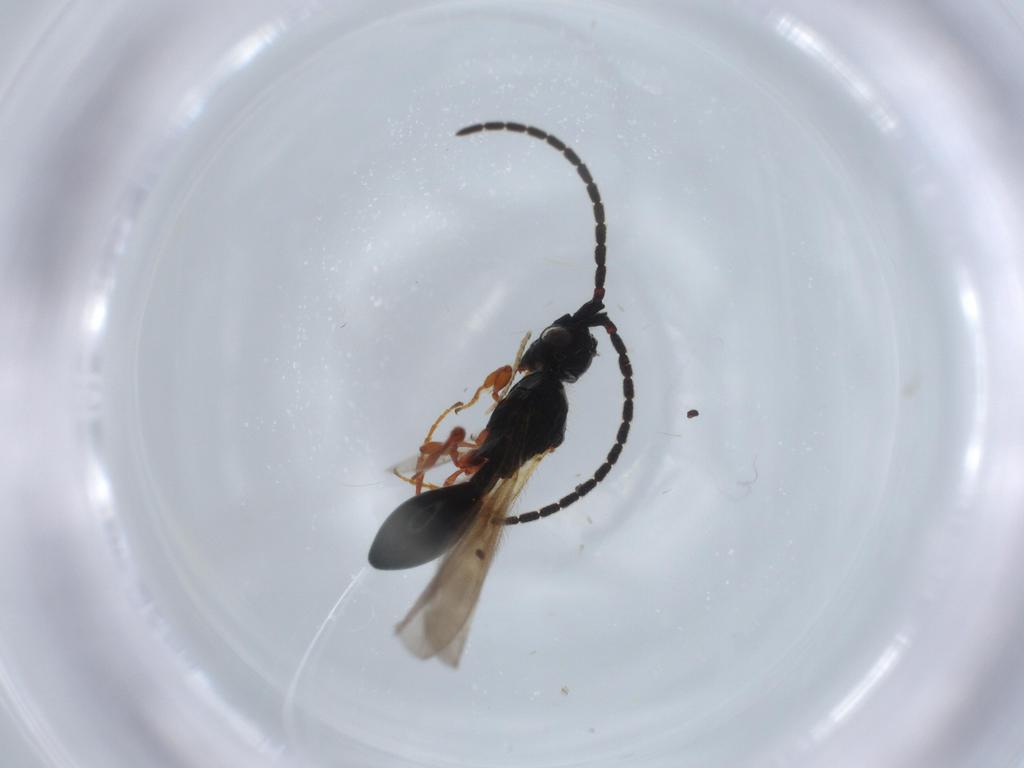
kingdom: Animalia
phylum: Arthropoda
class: Insecta
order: Hymenoptera
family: Diapriidae
